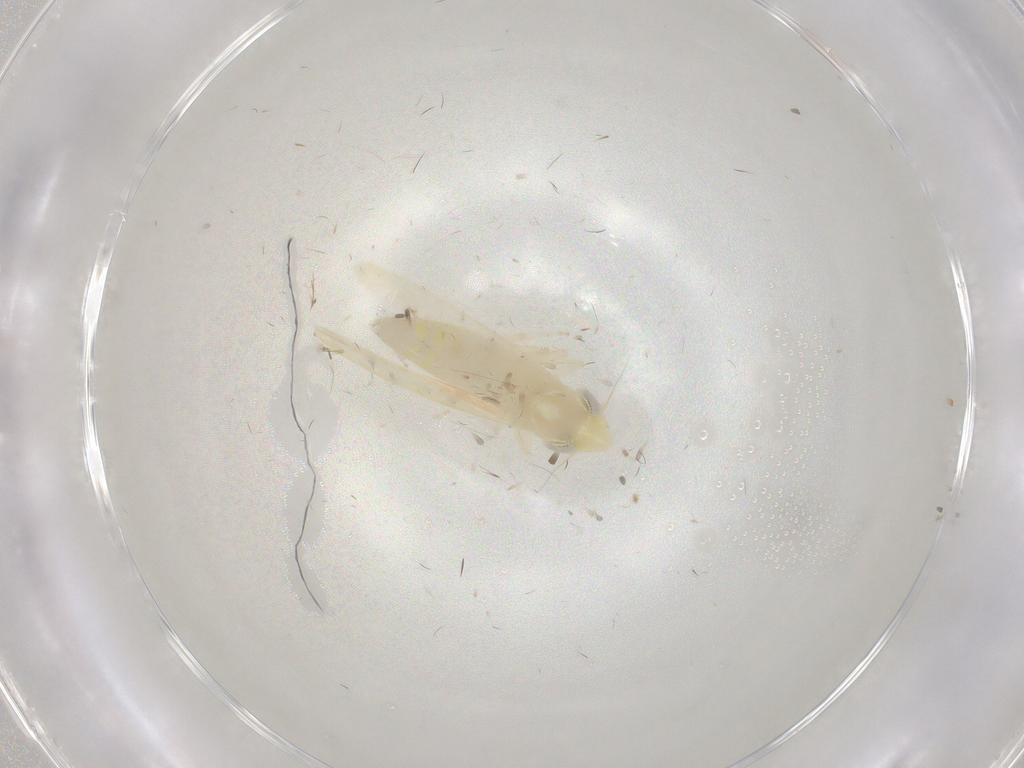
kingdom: Animalia
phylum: Arthropoda
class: Insecta
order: Hemiptera
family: Cicadellidae
